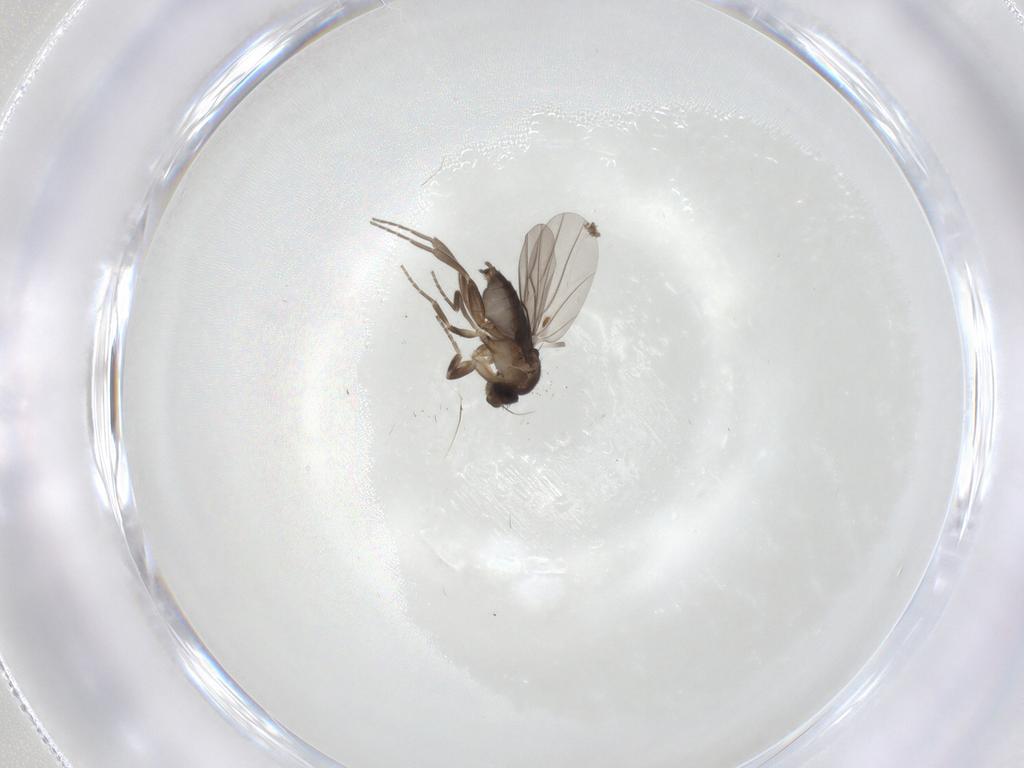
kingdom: Animalia
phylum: Arthropoda
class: Insecta
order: Diptera
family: Phoridae
